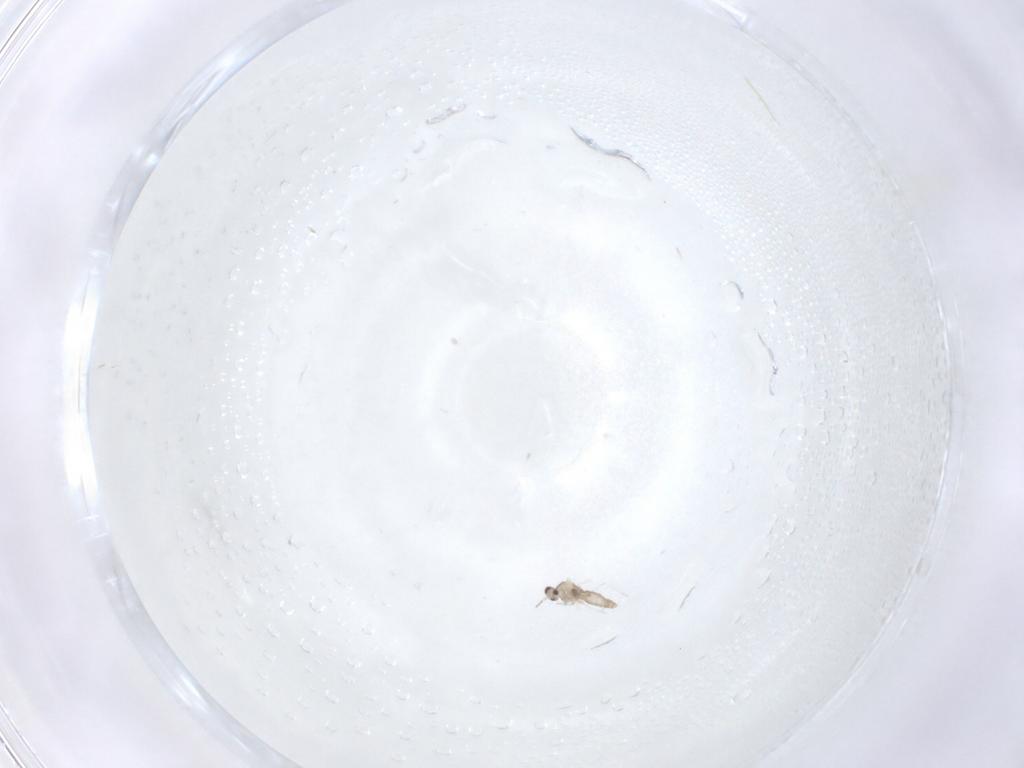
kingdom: Animalia
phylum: Arthropoda
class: Insecta
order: Diptera
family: Cecidomyiidae
